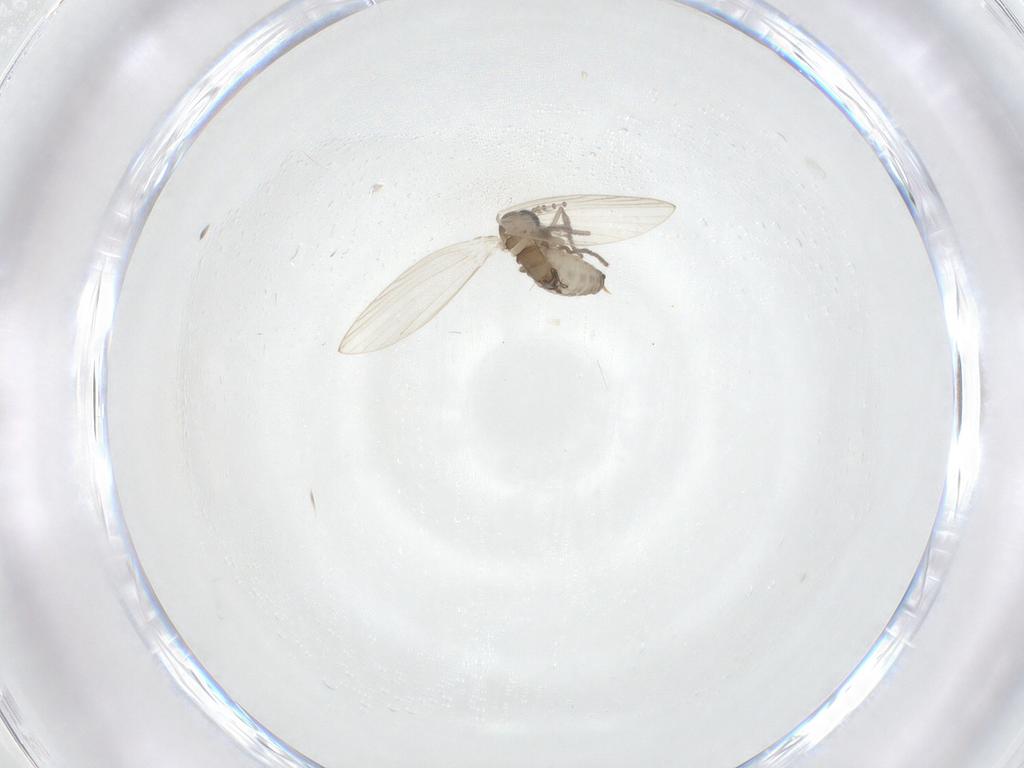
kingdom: Animalia
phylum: Arthropoda
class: Insecta
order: Diptera
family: Psychodidae
